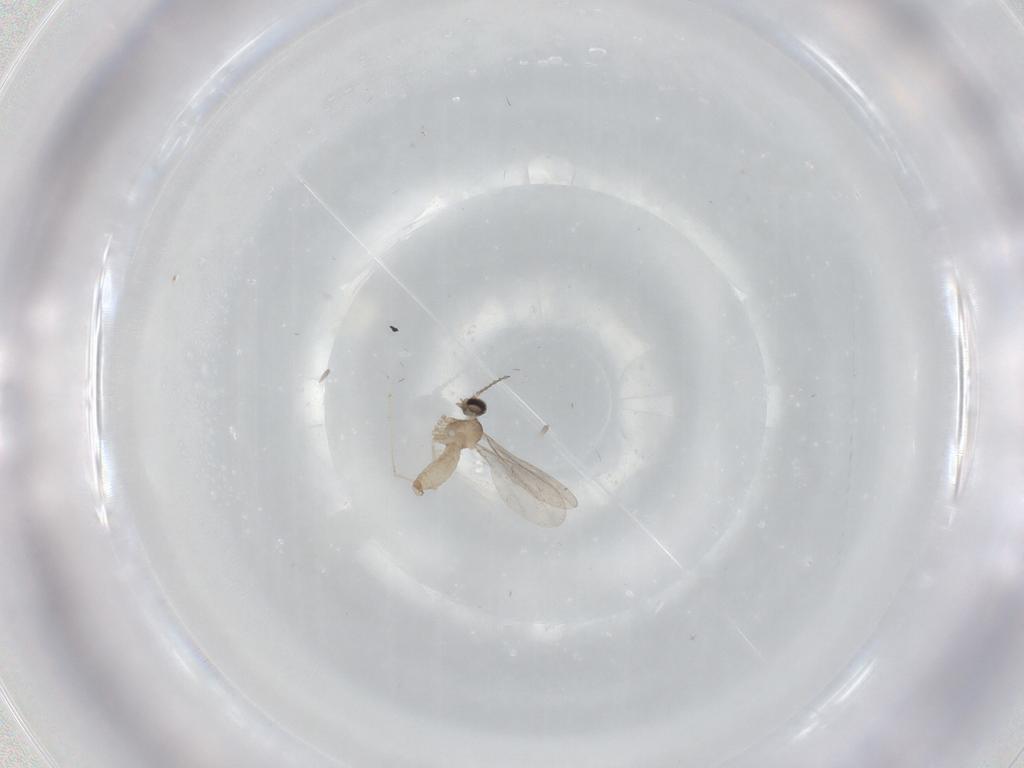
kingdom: Animalia
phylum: Arthropoda
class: Insecta
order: Diptera
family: Cecidomyiidae
